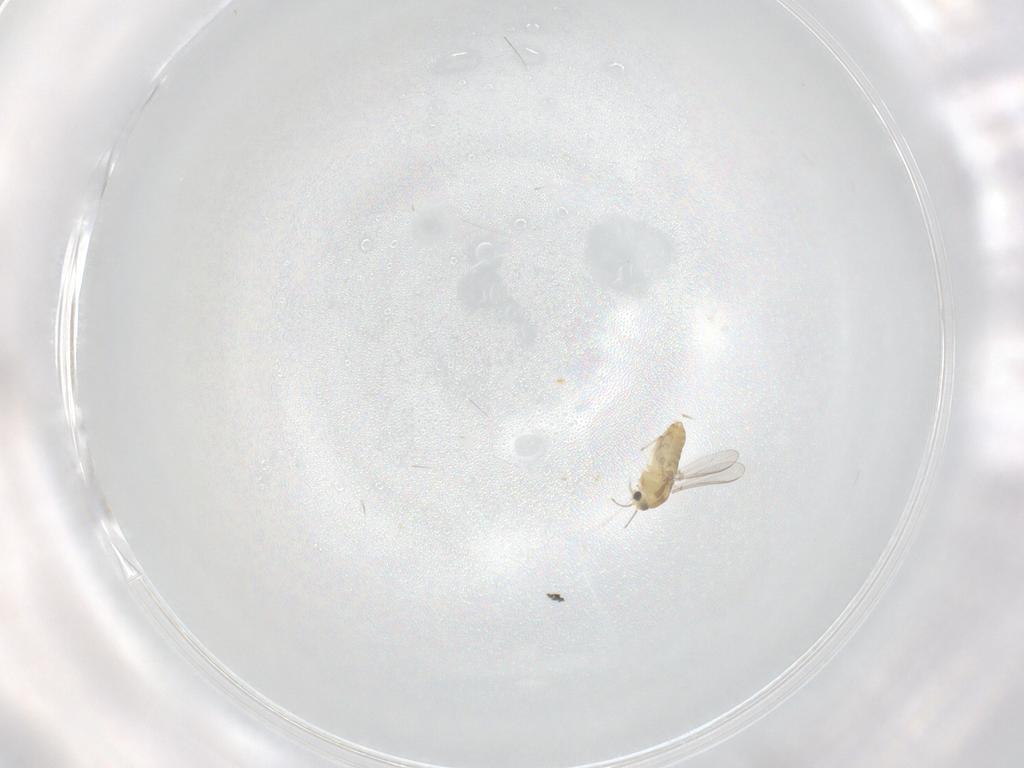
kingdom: Animalia
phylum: Arthropoda
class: Insecta
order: Diptera
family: Chironomidae
